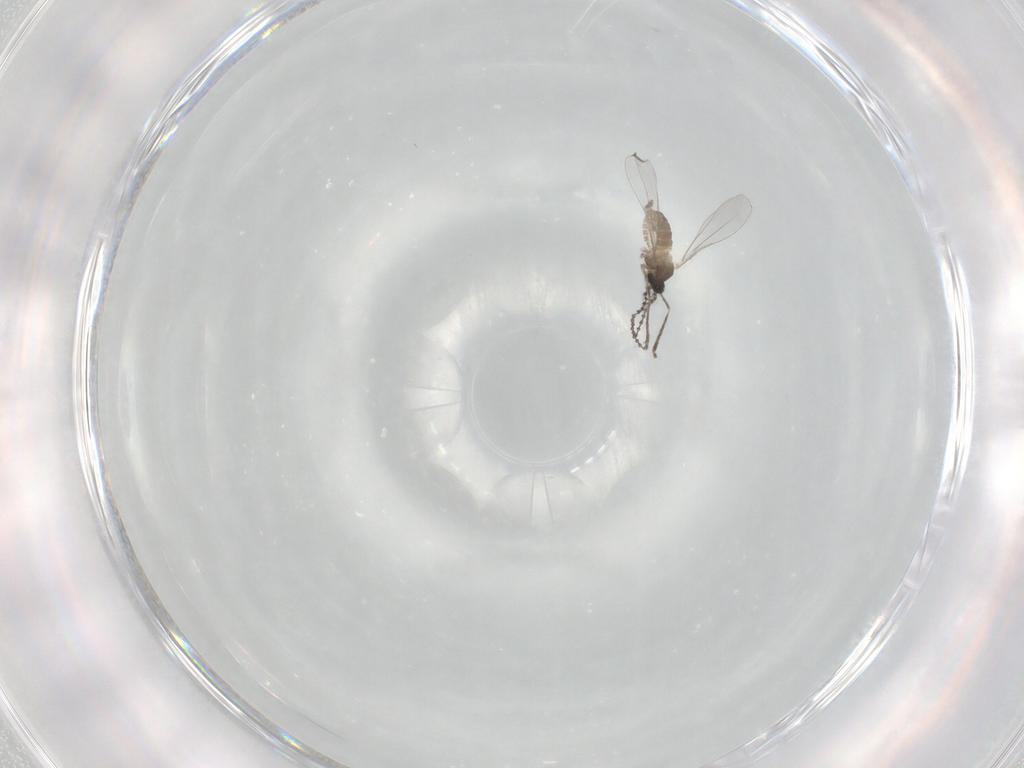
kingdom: Animalia
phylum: Arthropoda
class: Insecta
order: Diptera
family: Cecidomyiidae
